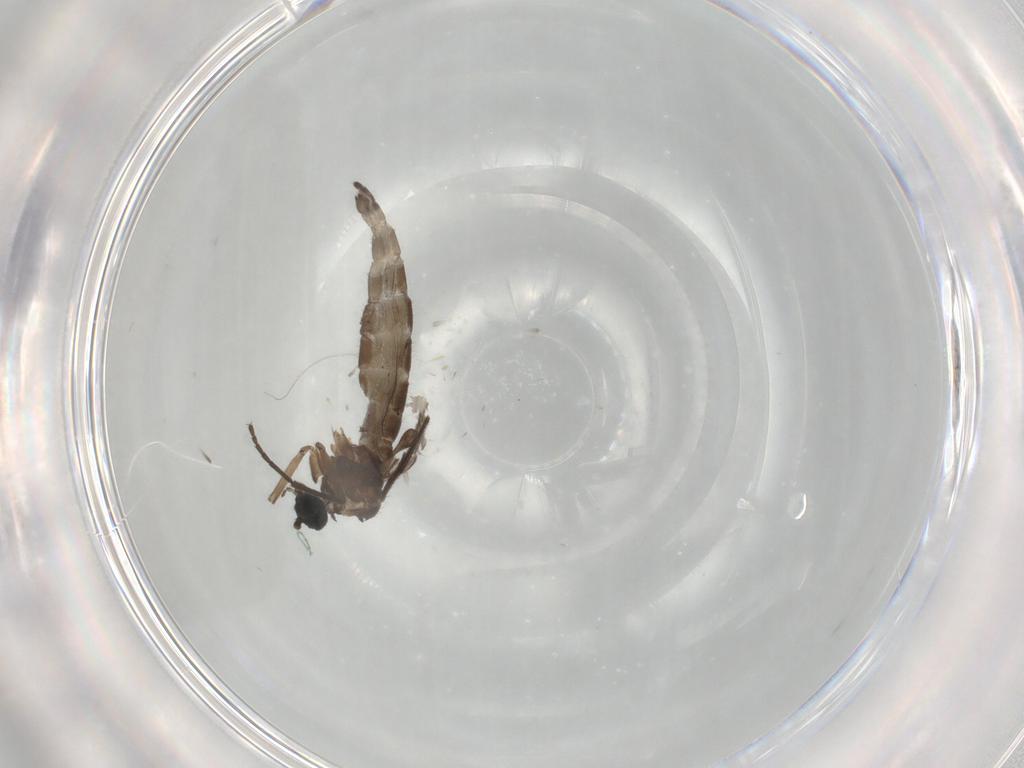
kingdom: Animalia
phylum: Arthropoda
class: Insecta
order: Diptera
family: Sciaridae
